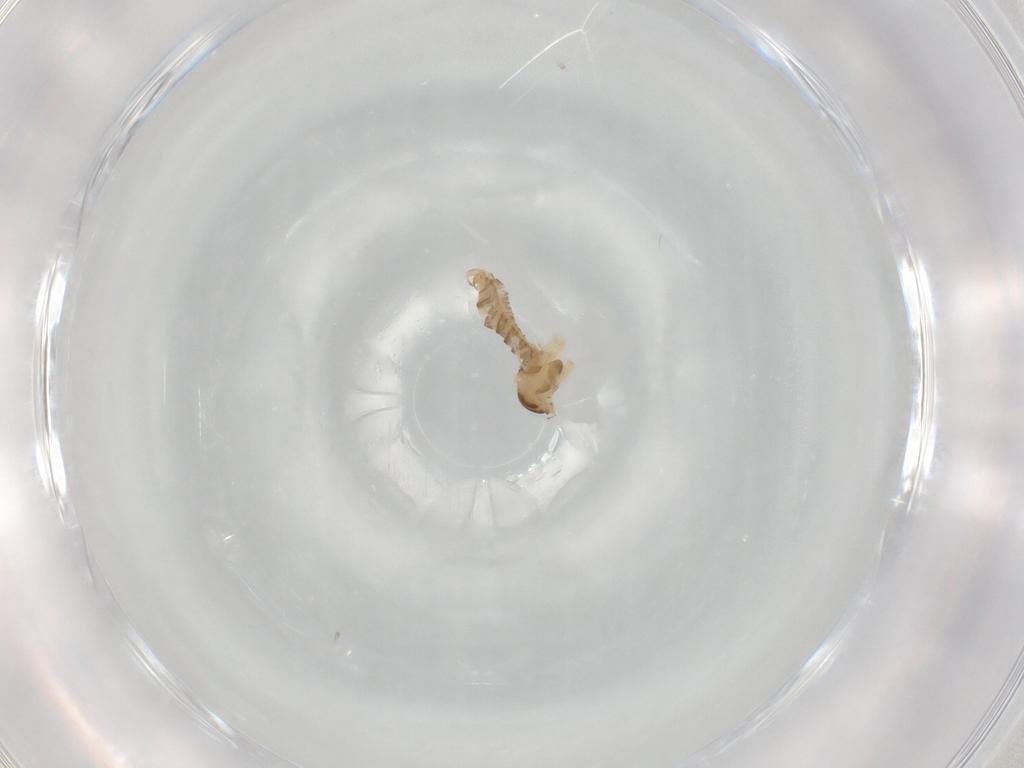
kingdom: Animalia
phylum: Arthropoda
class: Insecta
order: Diptera
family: Cecidomyiidae
